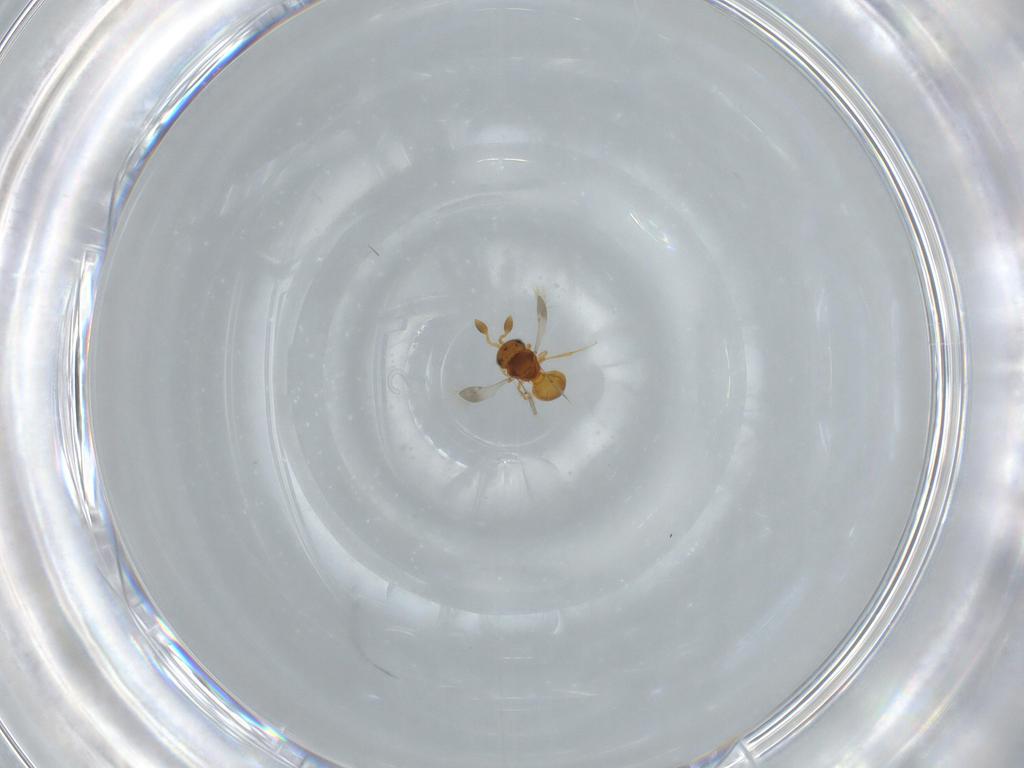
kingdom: Animalia
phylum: Arthropoda
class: Insecta
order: Hymenoptera
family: Scelionidae
